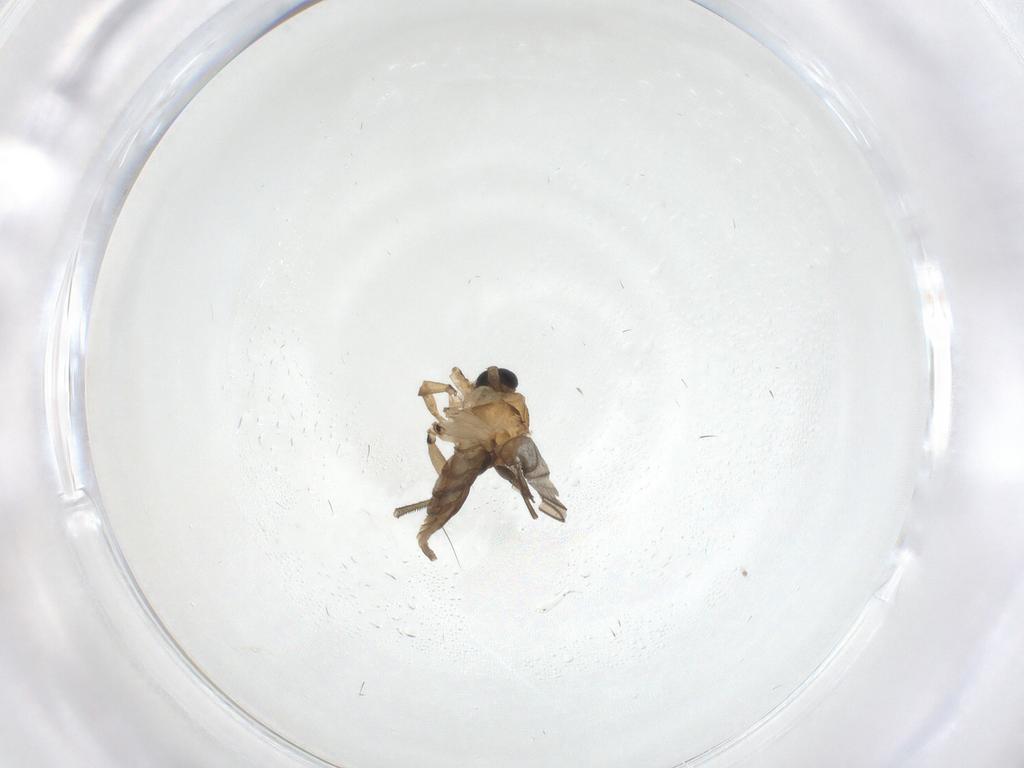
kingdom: Animalia
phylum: Arthropoda
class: Insecta
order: Diptera
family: Sciaridae
